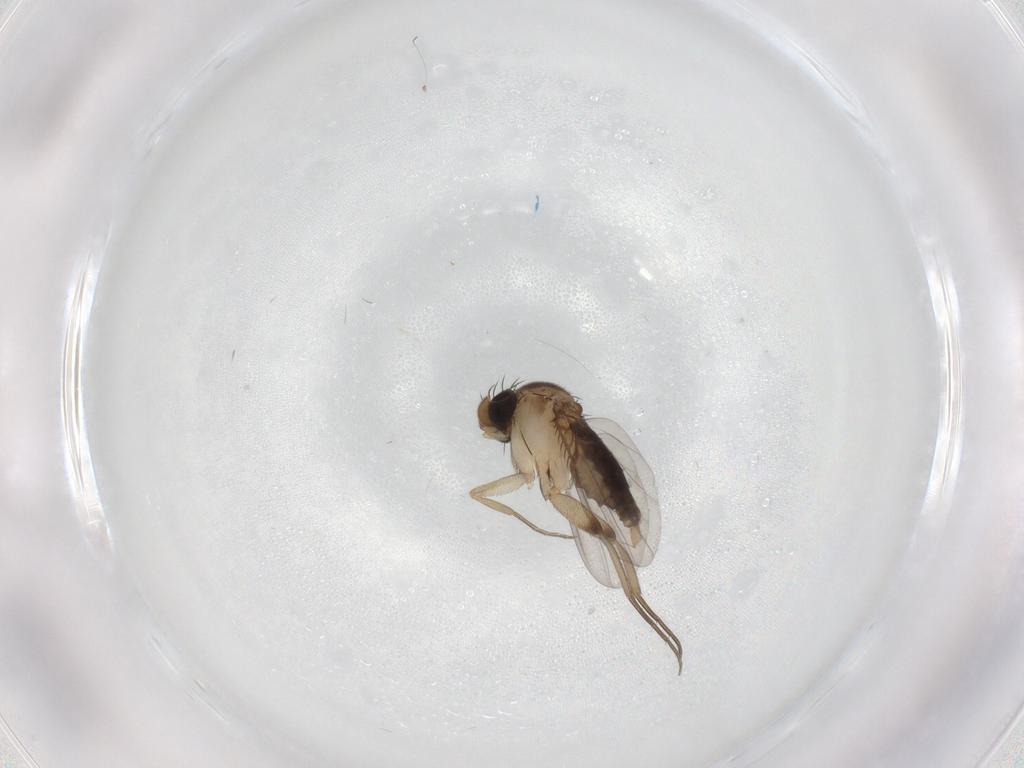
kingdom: Animalia
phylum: Arthropoda
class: Insecta
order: Diptera
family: Phoridae
